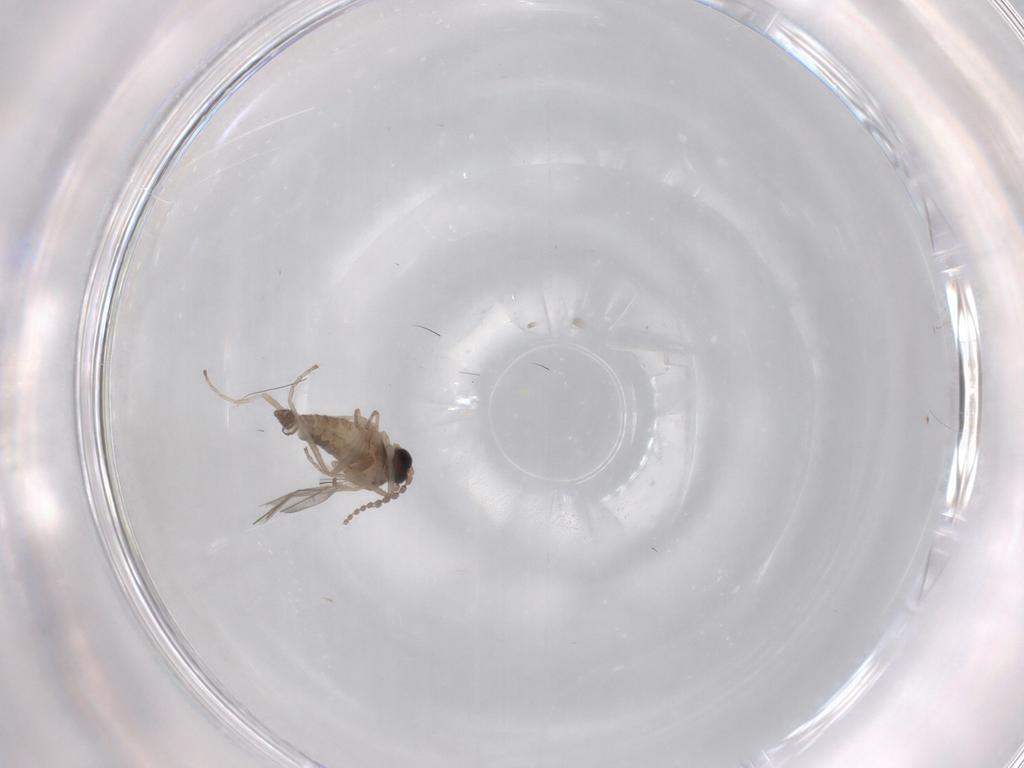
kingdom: Animalia
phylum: Arthropoda
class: Insecta
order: Diptera
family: Cecidomyiidae
